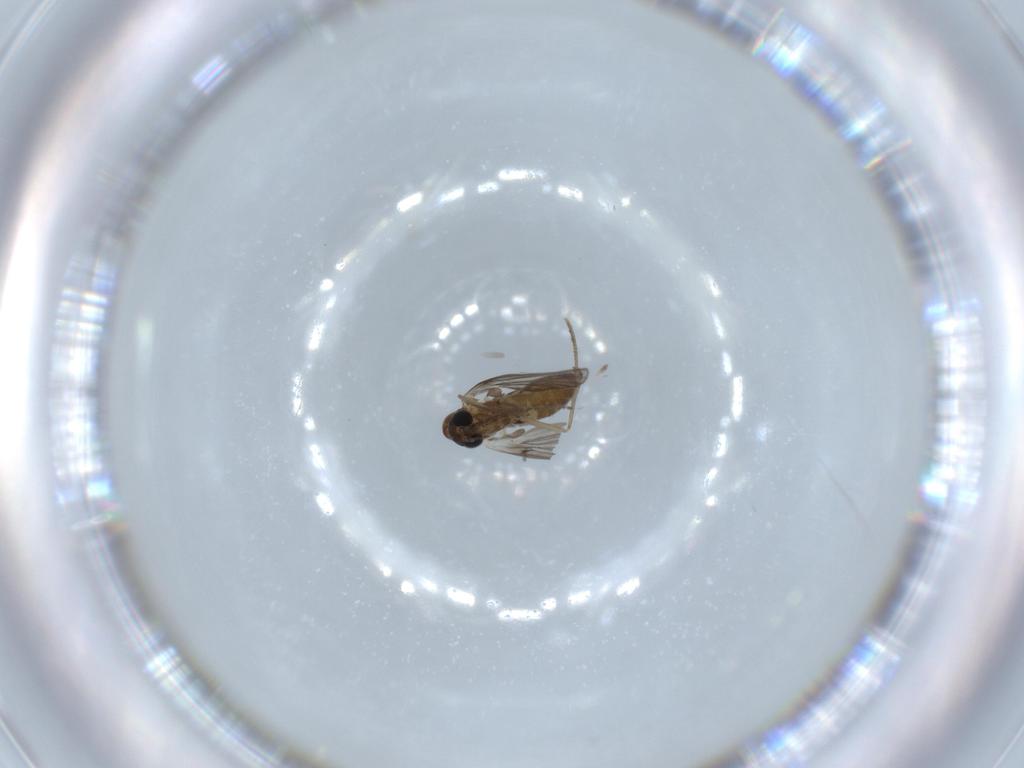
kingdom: Animalia
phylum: Arthropoda
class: Insecta
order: Diptera
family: Psychodidae
